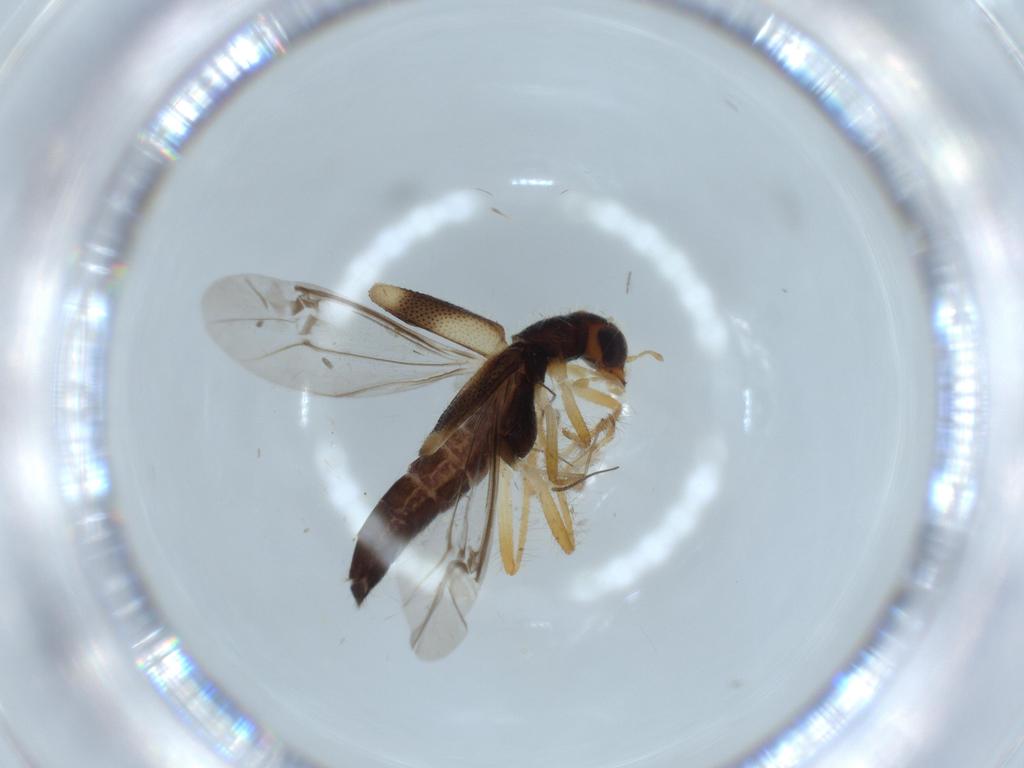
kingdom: Animalia
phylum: Arthropoda
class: Insecta
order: Coleoptera
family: Cleridae
